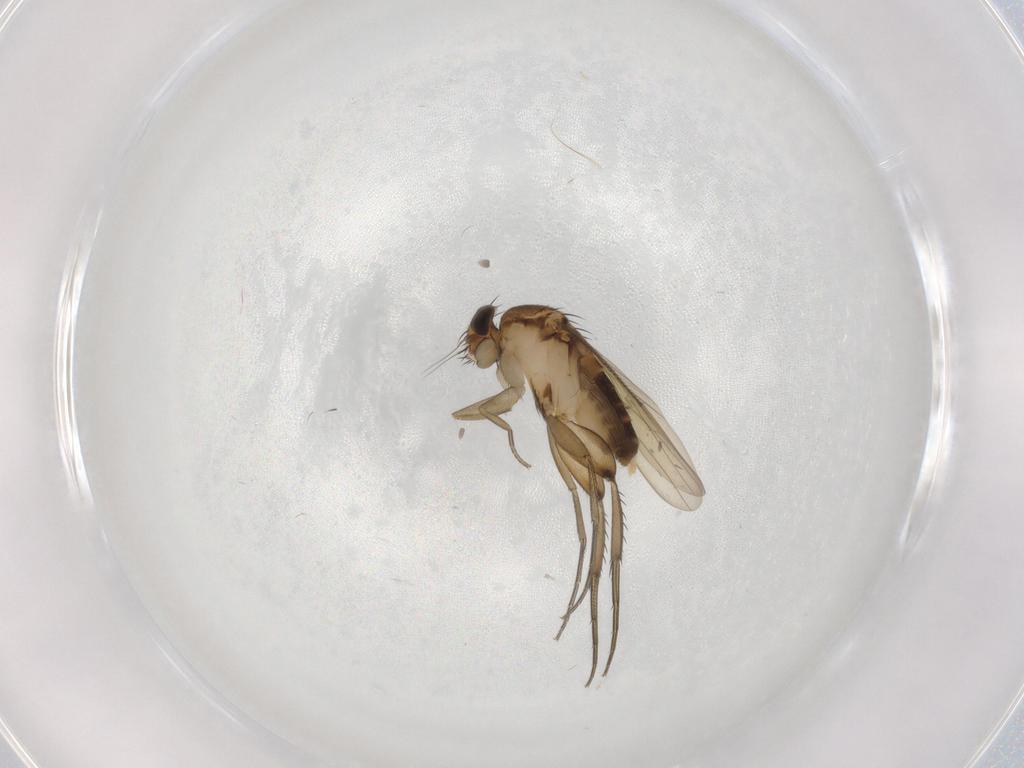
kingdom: Animalia
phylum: Arthropoda
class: Insecta
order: Diptera
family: Phoridae
